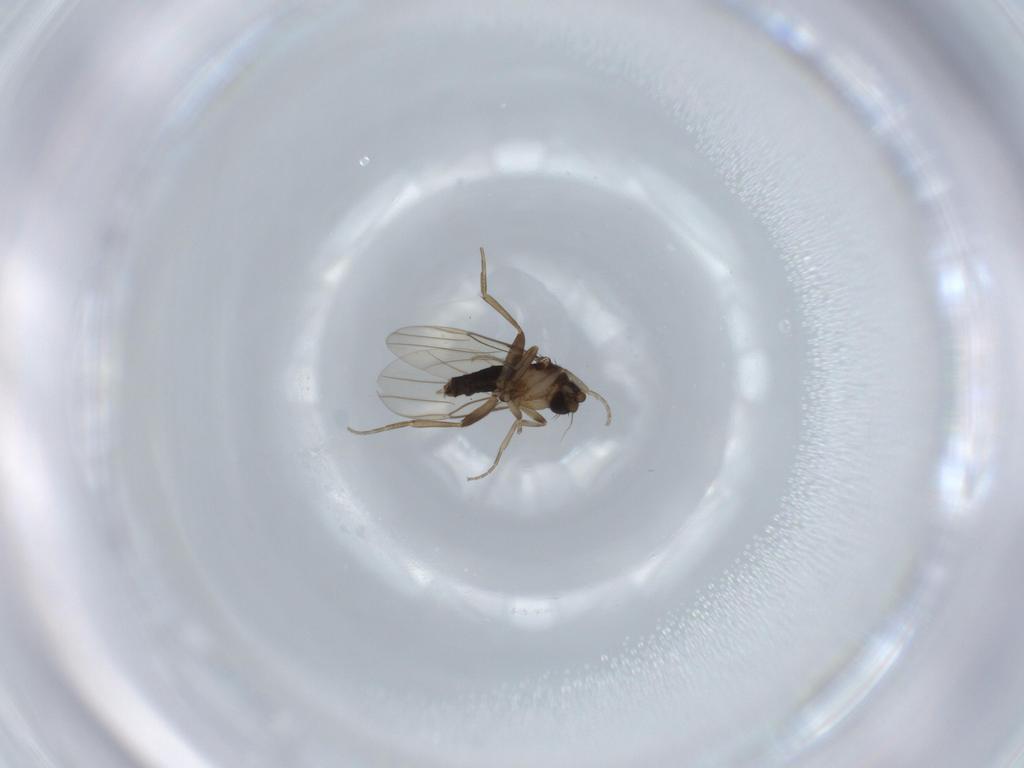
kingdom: Animalia
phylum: Arthropoda
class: Insecta
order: Diptera
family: Phoridae
